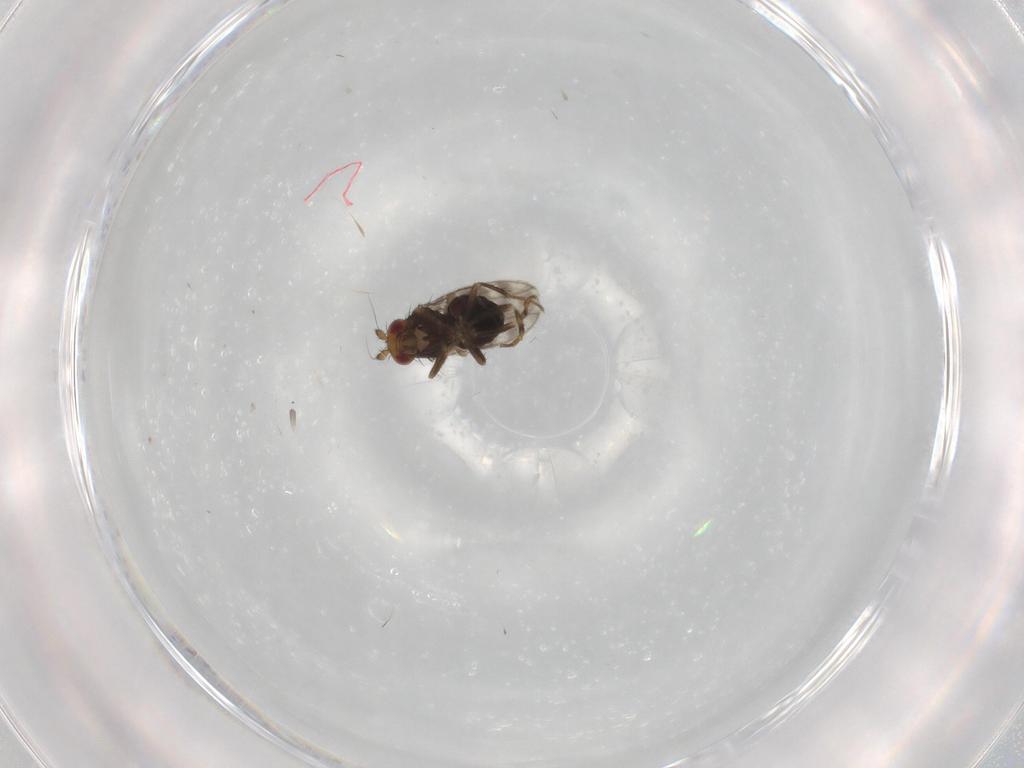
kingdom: Animalia
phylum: Arthropoda
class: Insecta
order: Diptera
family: Sphaeroceridae
